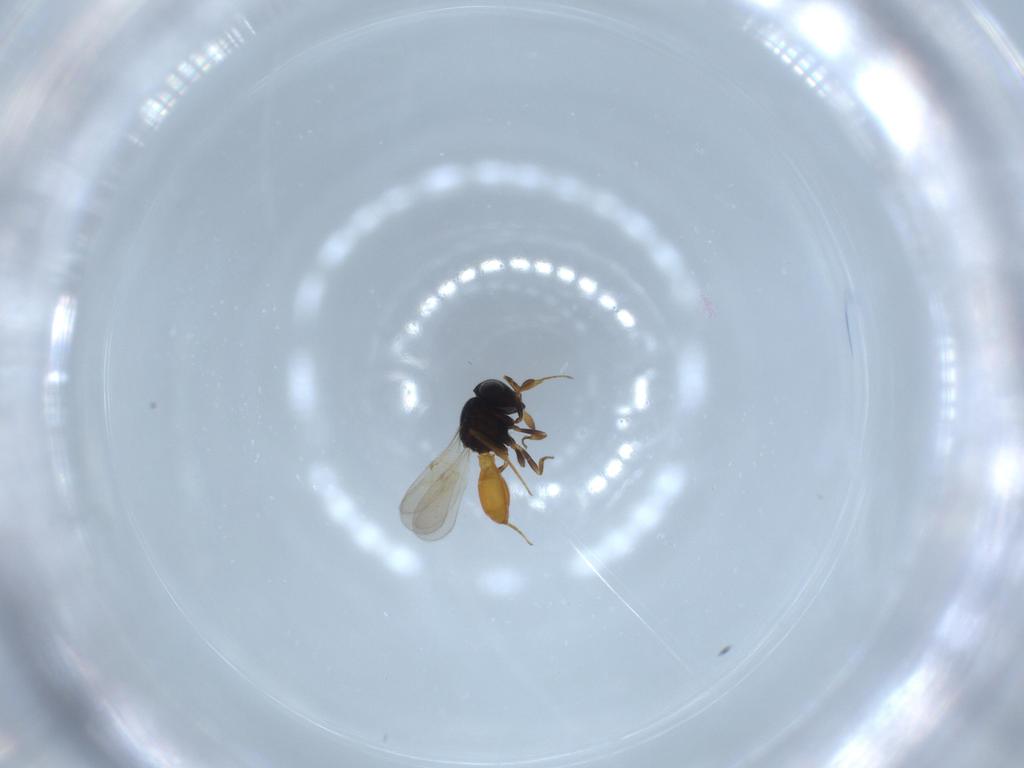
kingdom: Animalia
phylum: Arthropoda
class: Insecta
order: Hymenoptera
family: Scelionidae
